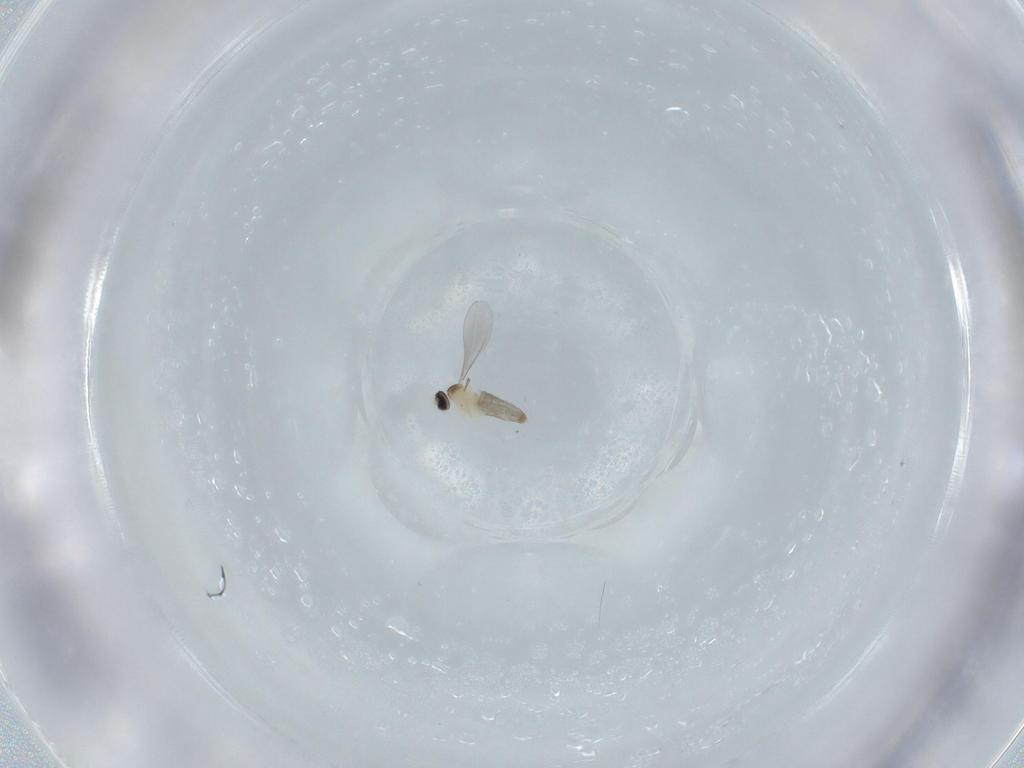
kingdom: Animalia
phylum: Arthropoda
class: Insecta
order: Diptera
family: Cecidomyiidae
